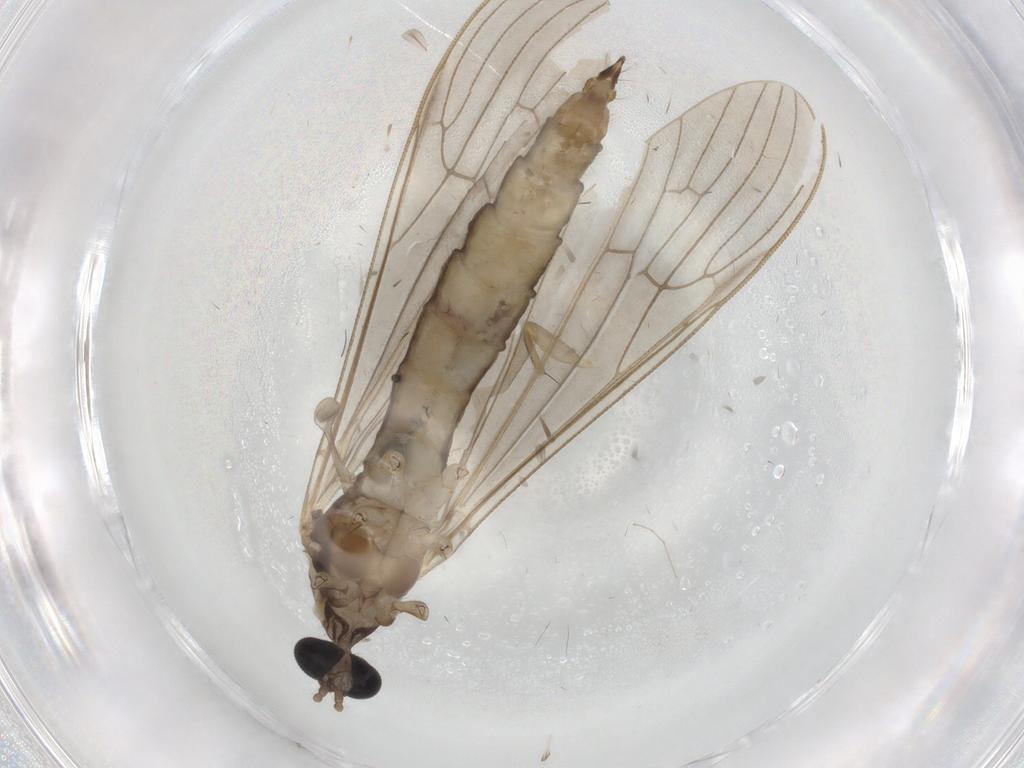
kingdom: Animalia
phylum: Arthropoda
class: Insecta
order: Diptera
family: Sciaridae
